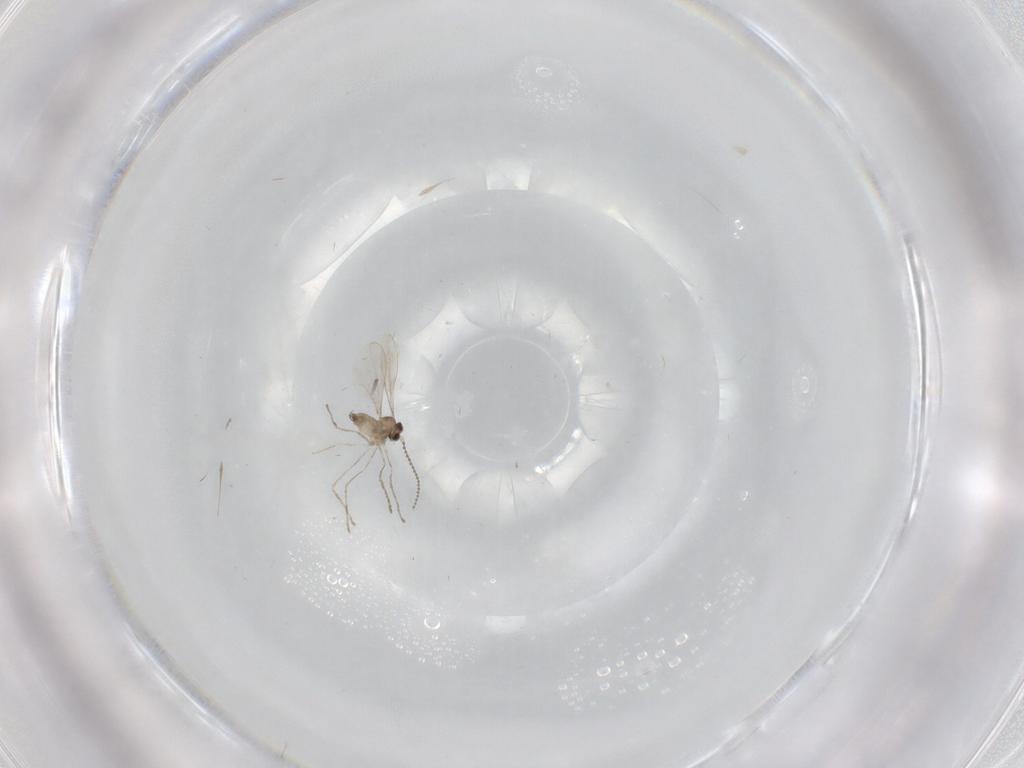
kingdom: Animalia
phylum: Arthropoda
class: Insecta
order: Diptera
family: Cecidomyiidae
